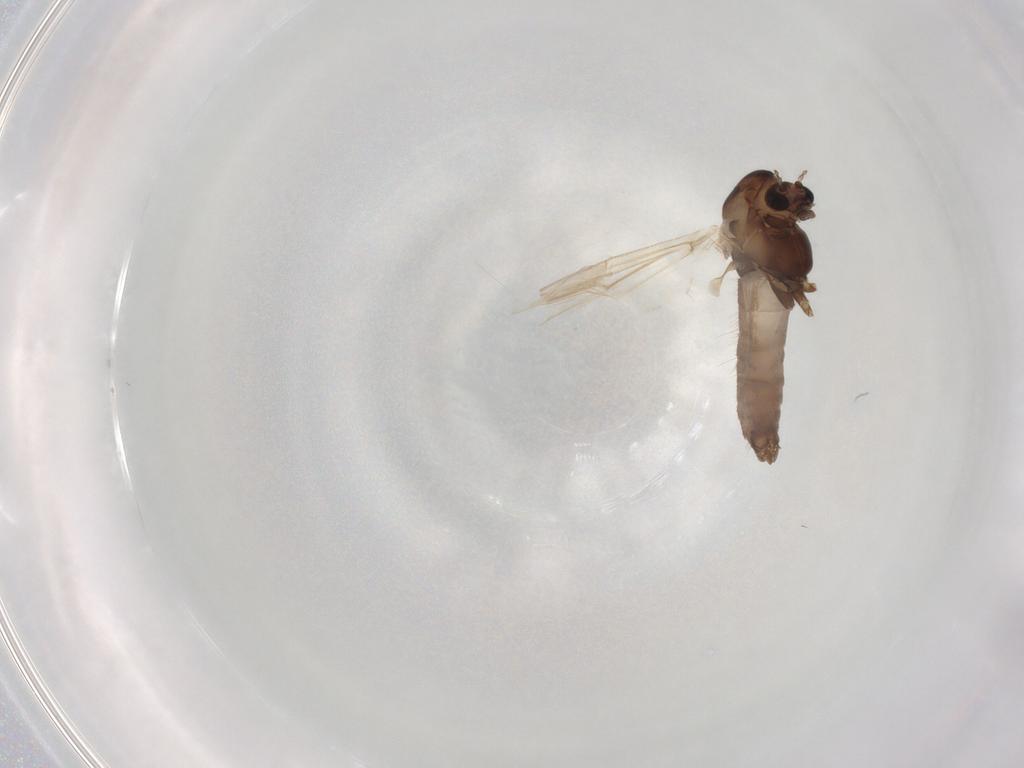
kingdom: Animalia
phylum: Arthropoda
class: Insecta
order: Diptera
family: Chironomidae
